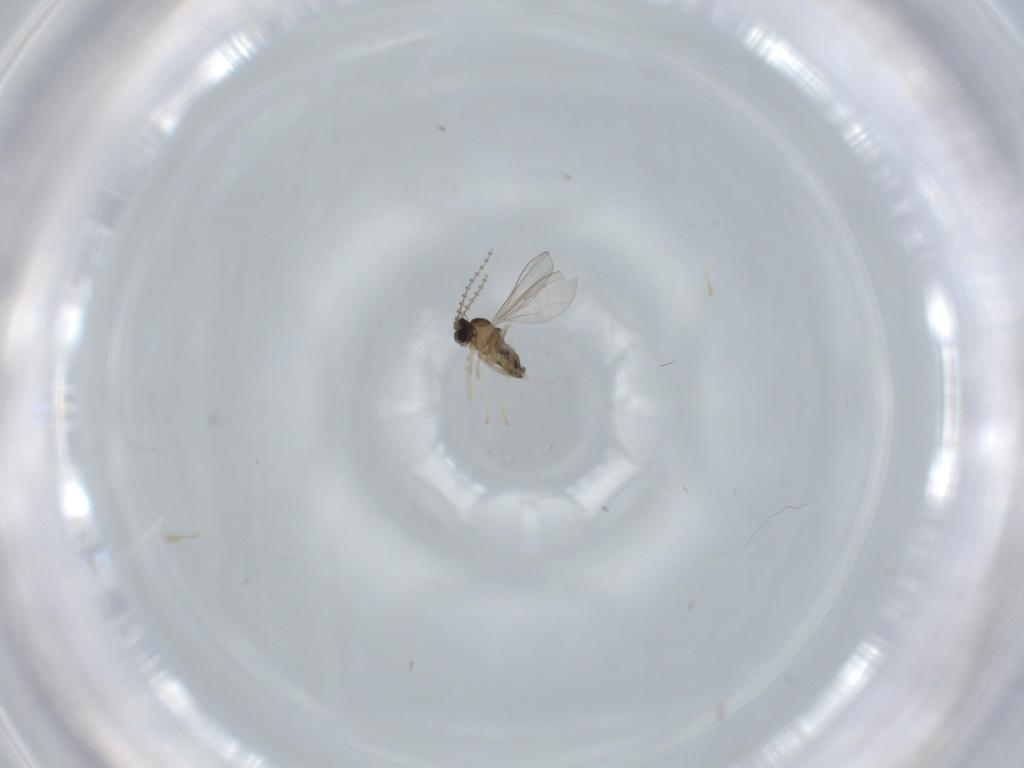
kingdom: Animalia
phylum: Arthropoda
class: Insecta
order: Diptera
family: Cecidomyiidae
